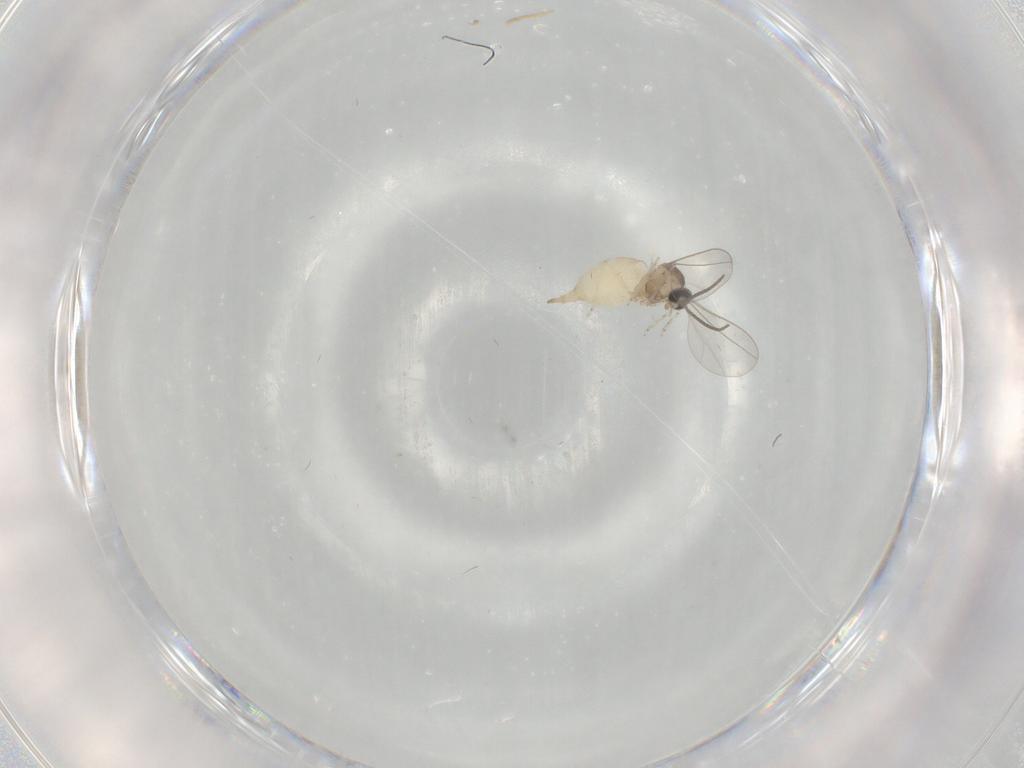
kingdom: Animalia
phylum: Arthropoda
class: Insecta
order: Diptera
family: Cecidomyiidae
